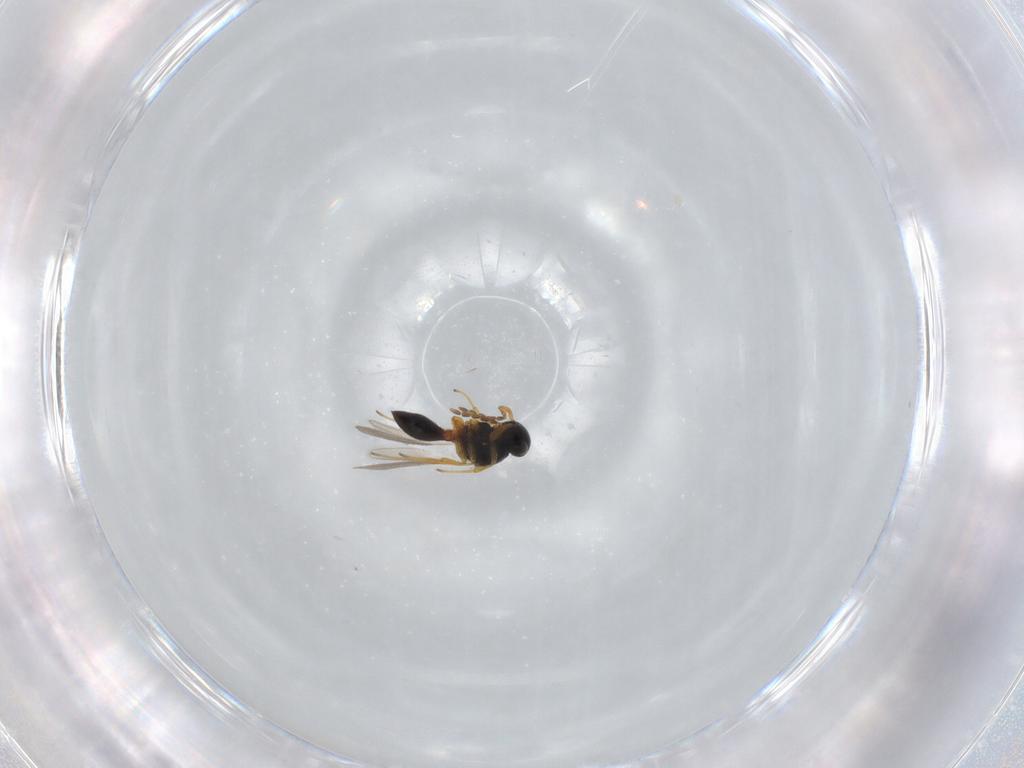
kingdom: Animalia
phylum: Arthropoda
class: Insecta
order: Hymenoptera
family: Platygastridae
